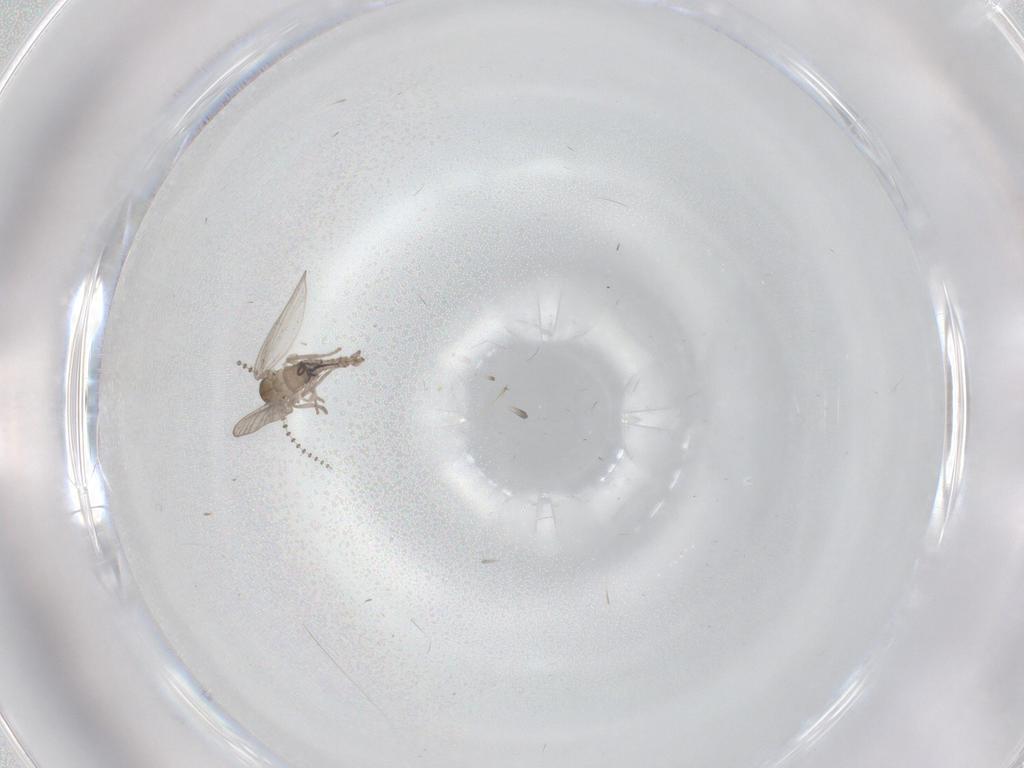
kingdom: Animalia
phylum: Arthropoda
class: Insecta
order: Diptera
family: Psychodidae
